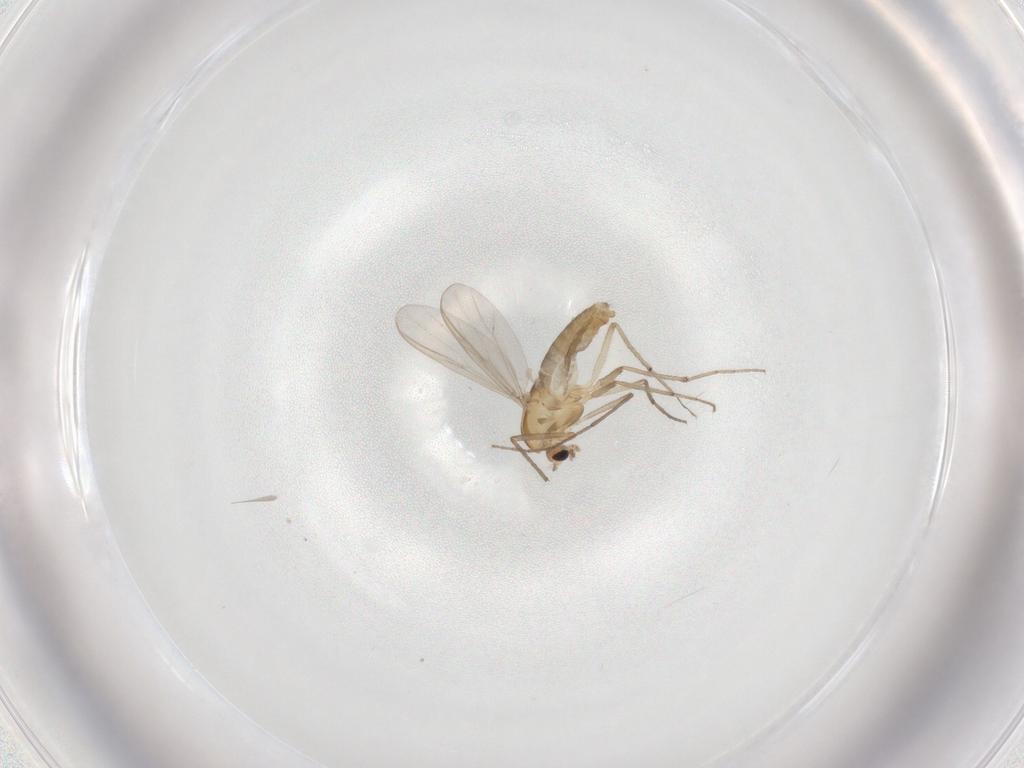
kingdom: Animalia
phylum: Arthropoda
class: Insecta
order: Diptera
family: Chironomidae
